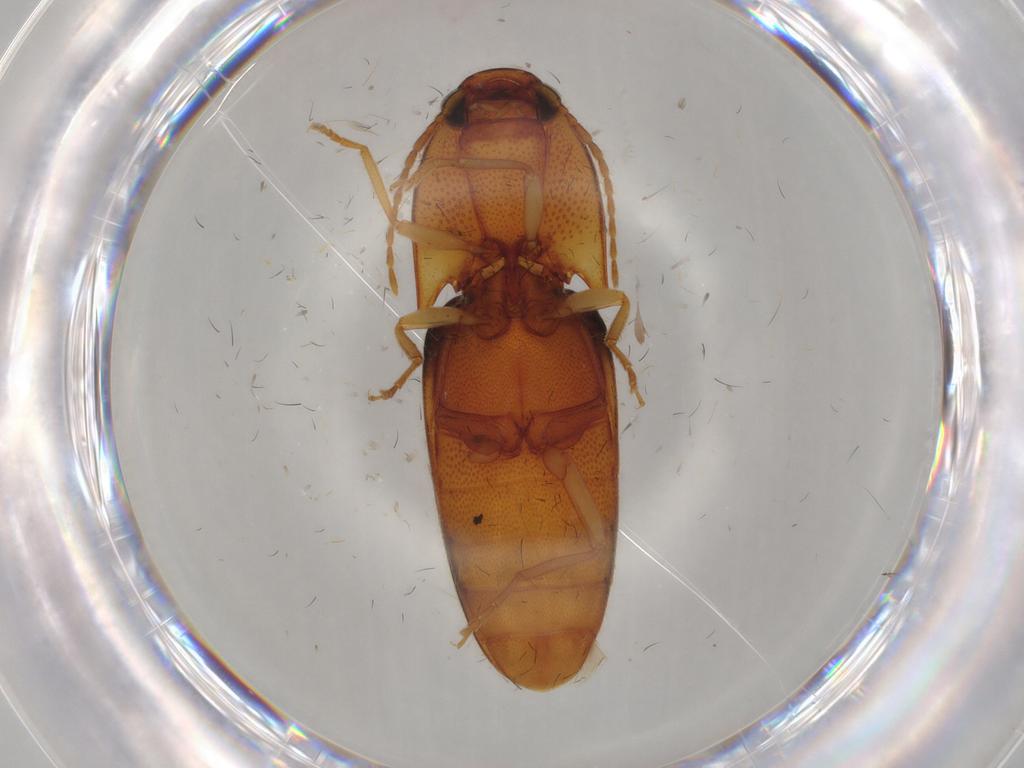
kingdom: Animalia
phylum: Arthropoda
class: Insecta
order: Coleoptera
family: Elateridae
